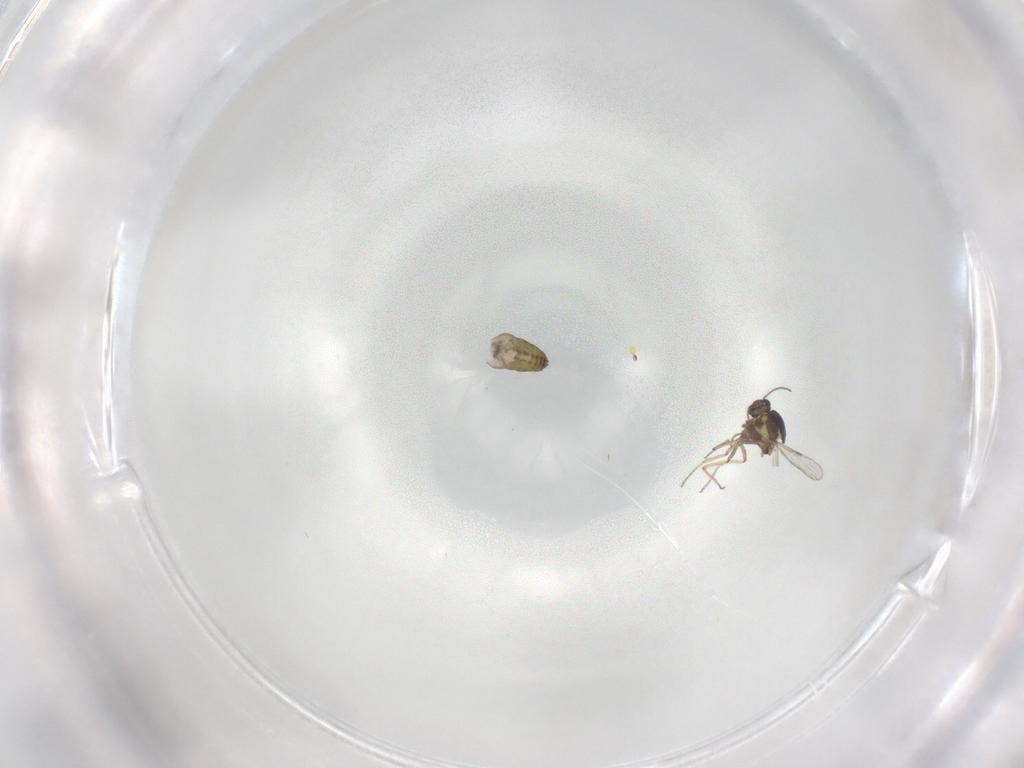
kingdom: Animalia
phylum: Arthropoda
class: Insecta
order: Diptera
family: Ceratopogonidae
